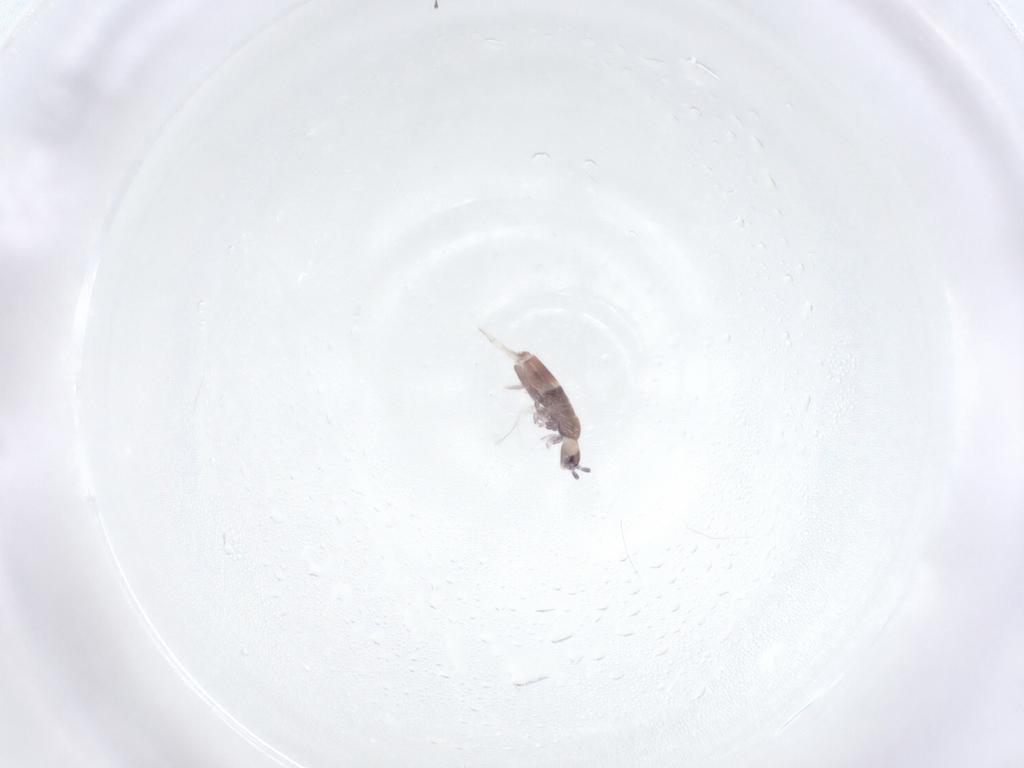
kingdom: Animalia
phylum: Arthropoda
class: Collembola
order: Entomobryomorpha
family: Entomobryidae
